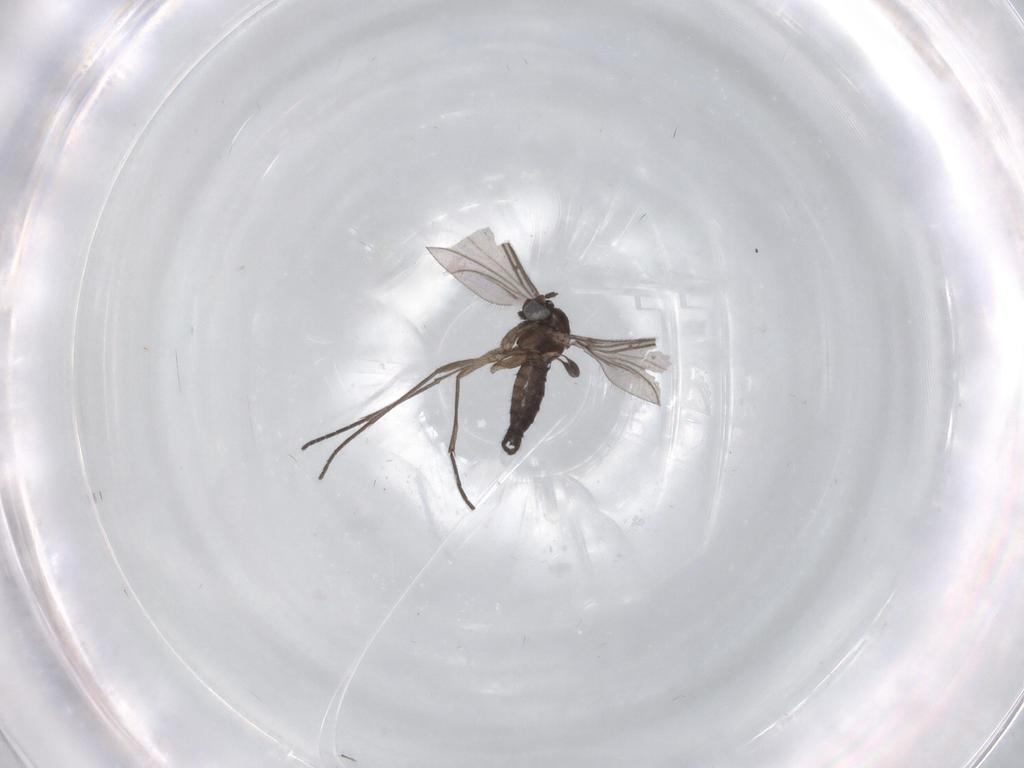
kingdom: Animalia
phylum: Arthropoda
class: Insecta
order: Diptera
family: Sciaridae
